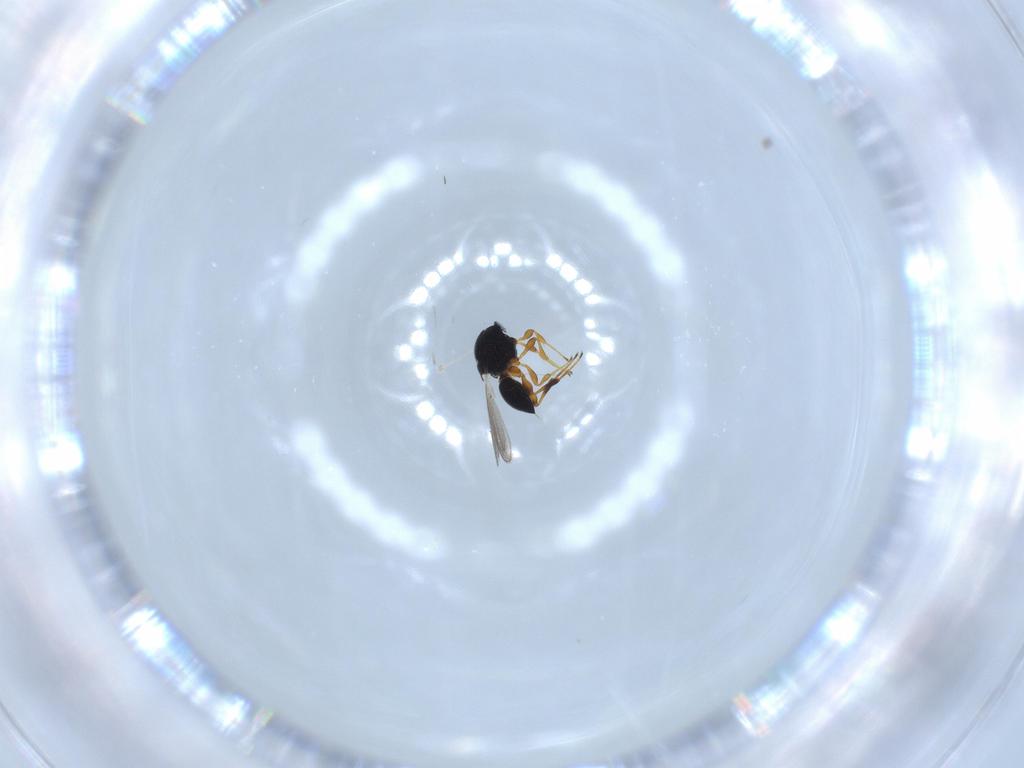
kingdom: Animalia
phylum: Arthropoda
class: Insecta
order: Hymenoptera
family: Platygastridae
